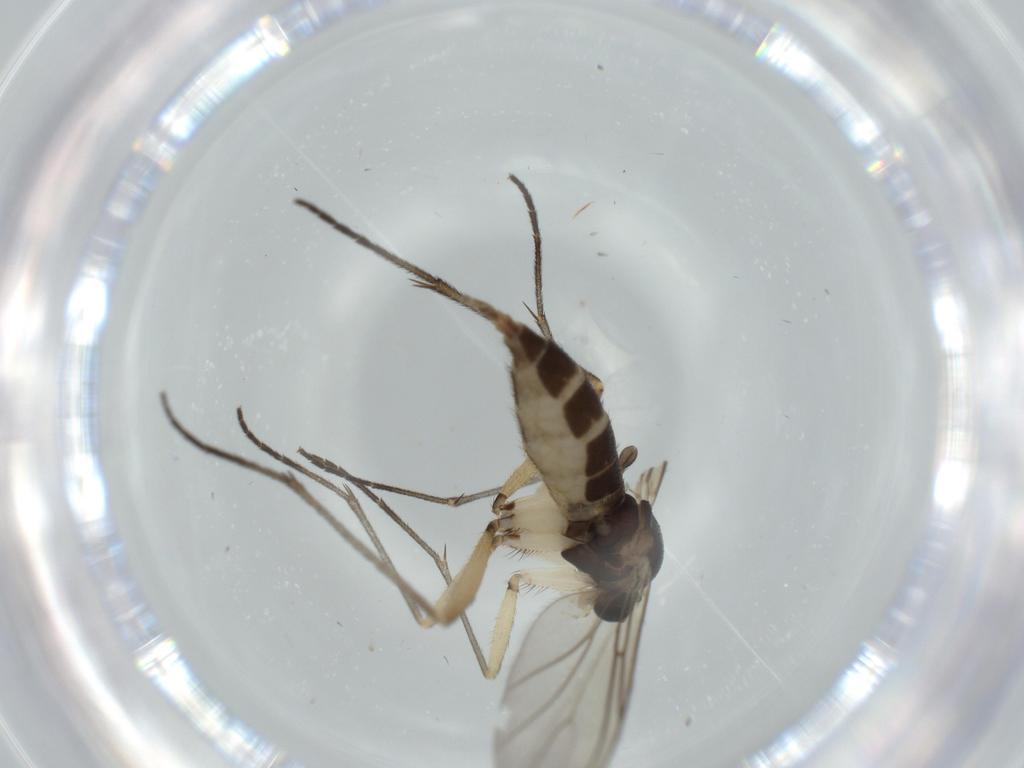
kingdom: Animalia
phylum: Arthropoda
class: Insecta
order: Diptera
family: Sciaridae
